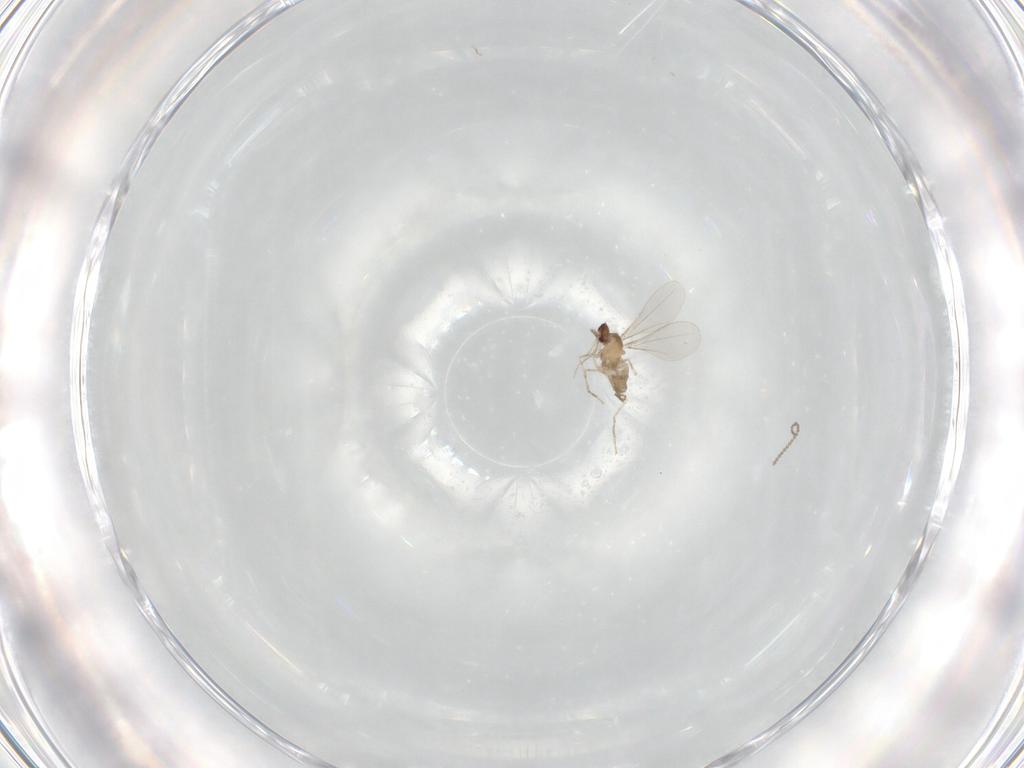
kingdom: Animalia
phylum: Arthropoda
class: Insecta
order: Diptera
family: Cecidomyiidae
